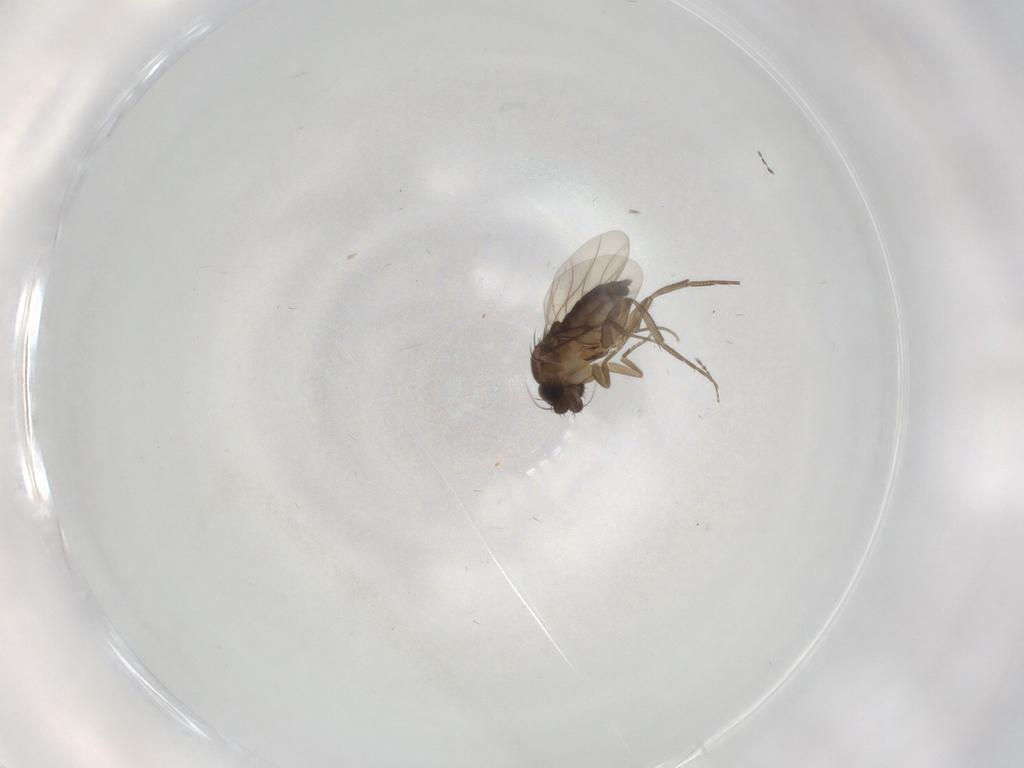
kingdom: Animalia
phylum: Arthropoda
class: Insecta
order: Diptera
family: Phoridae
